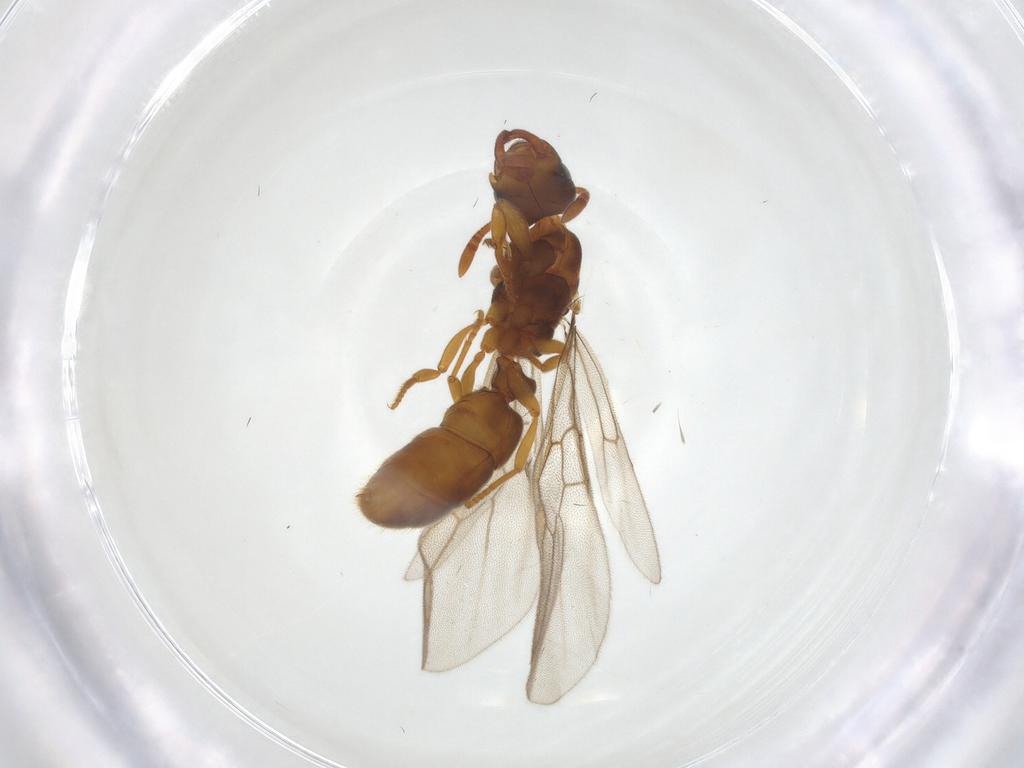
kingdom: Animalia
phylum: Arthropoda
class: Insecta
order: Hymenoptera
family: Formicidae
